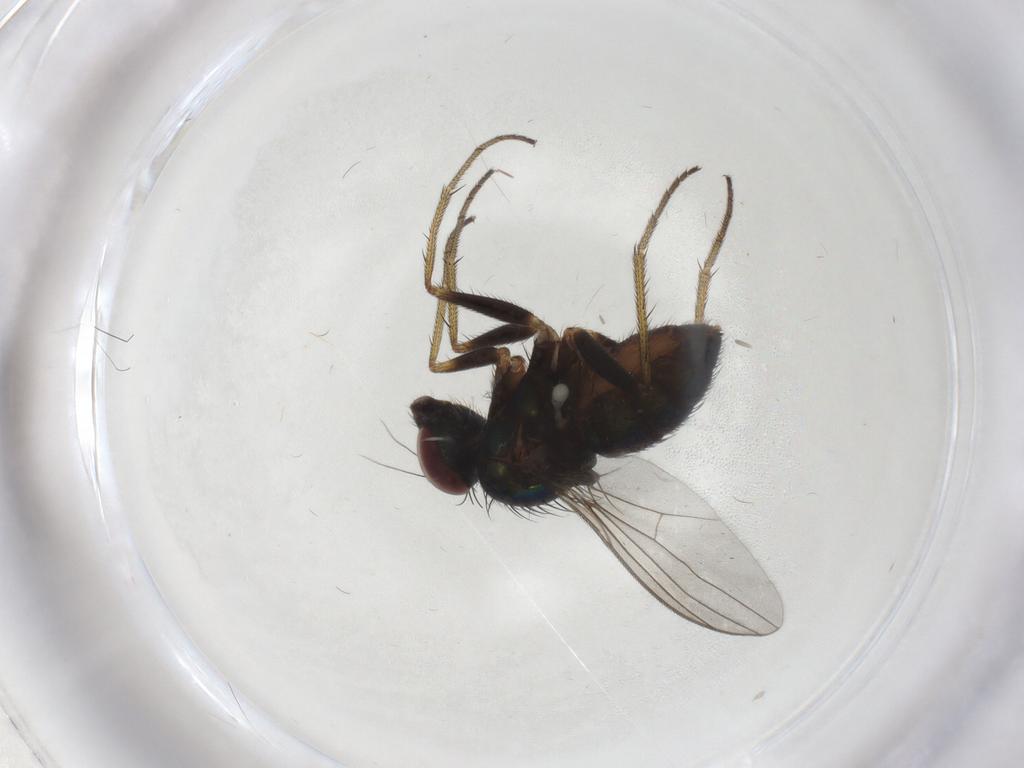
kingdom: Animalia
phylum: Arthropoda
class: Insecta
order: Diptera
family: Dolichopodidae
